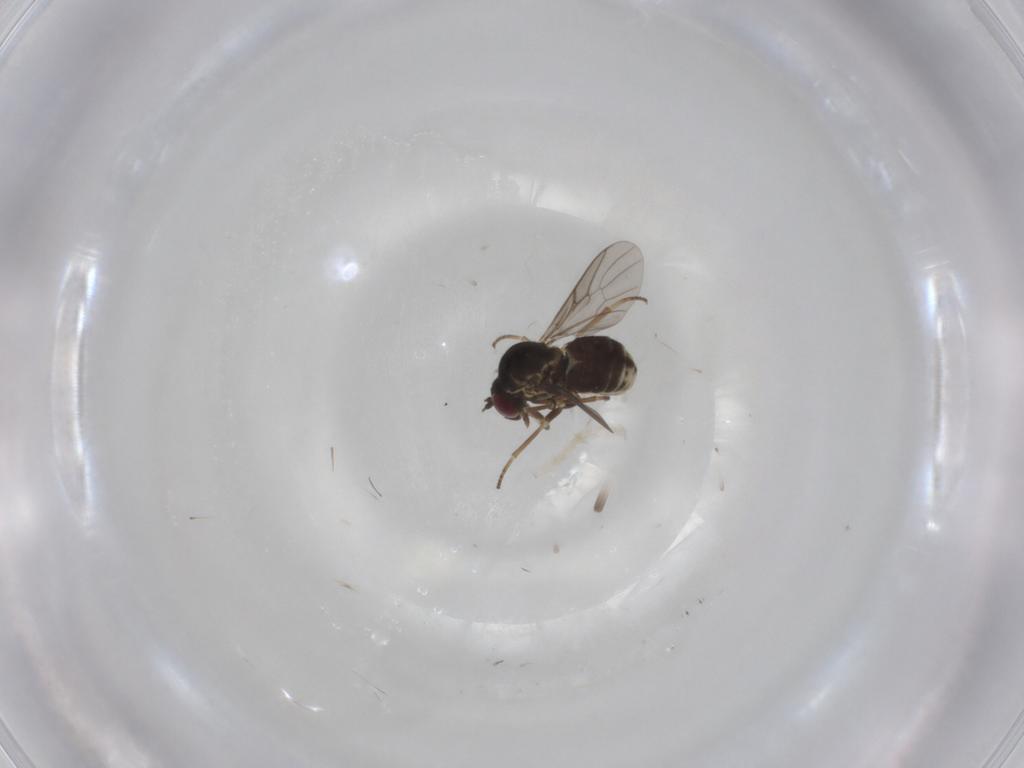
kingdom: Animalia
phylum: Arthropoda
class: Insecta
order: Diptera
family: Bombyliidae
